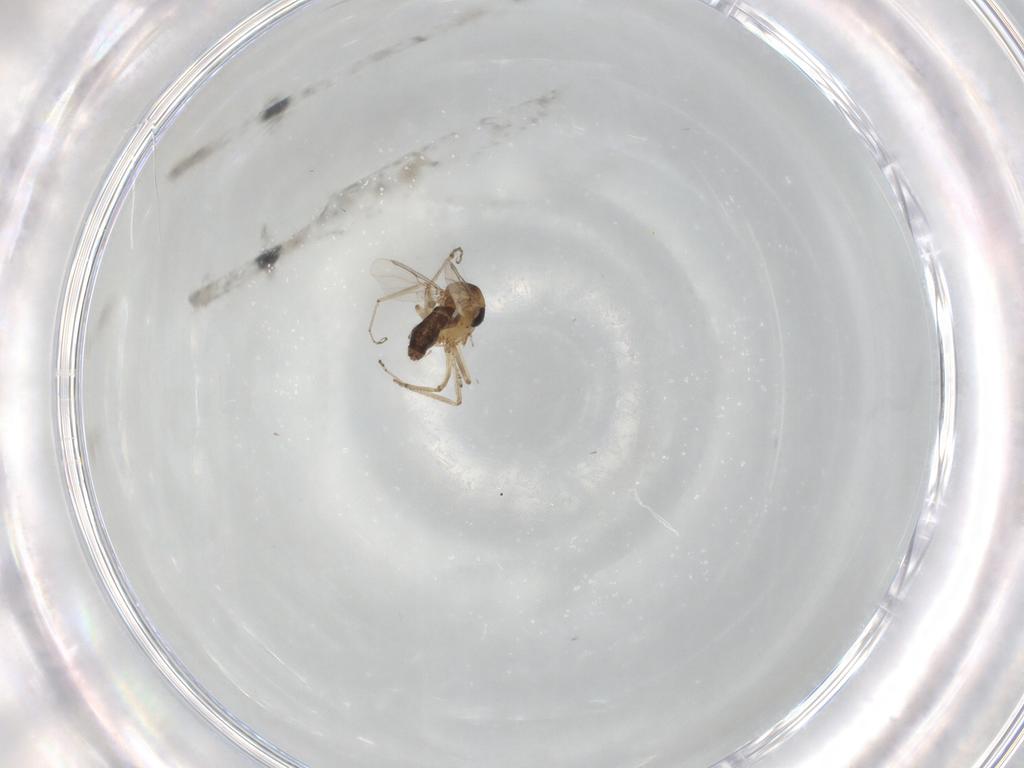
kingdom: Animalia
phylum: Arthropoda
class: Insecta
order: Diptera
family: Ceratopogonidae
